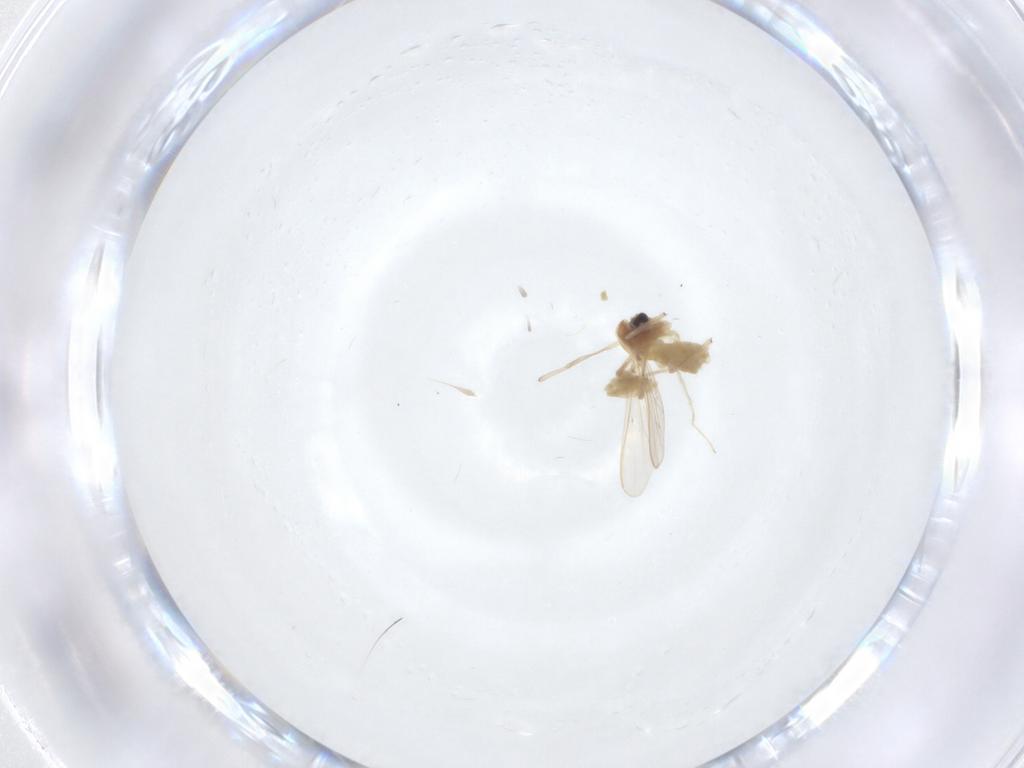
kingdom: Animalia
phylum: Arthropoda
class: Insecta
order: Diptera
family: Chironomidae
